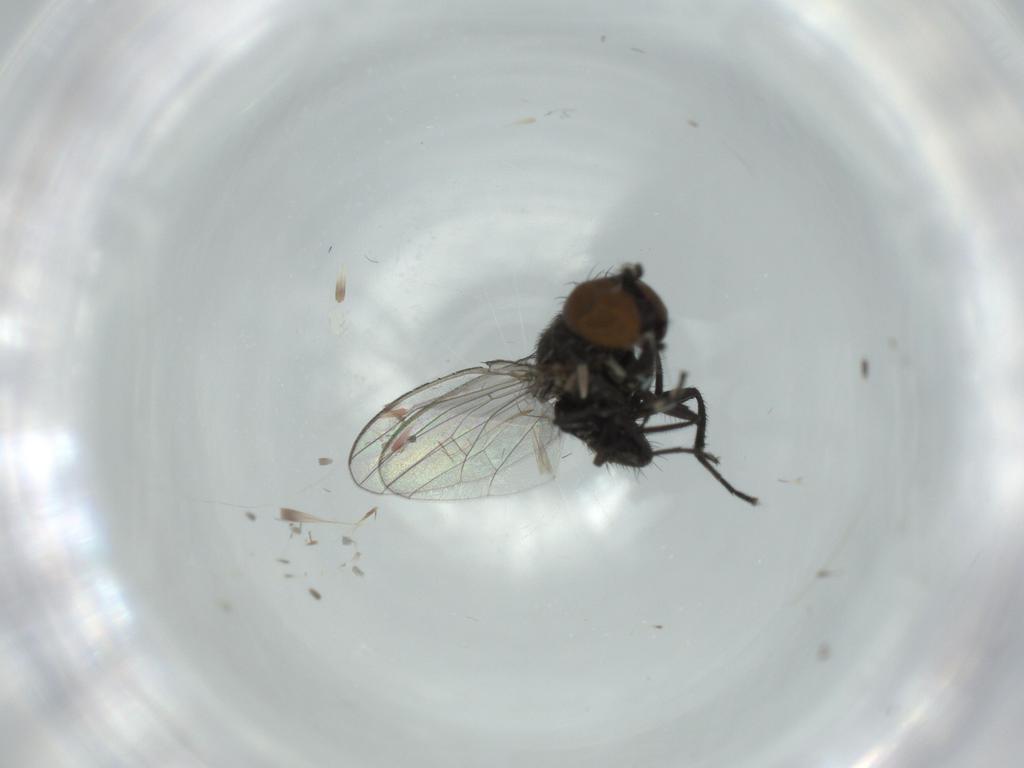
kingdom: Animalia
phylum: Arthropoda
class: Insecta
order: Diptera
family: Milichiidae
